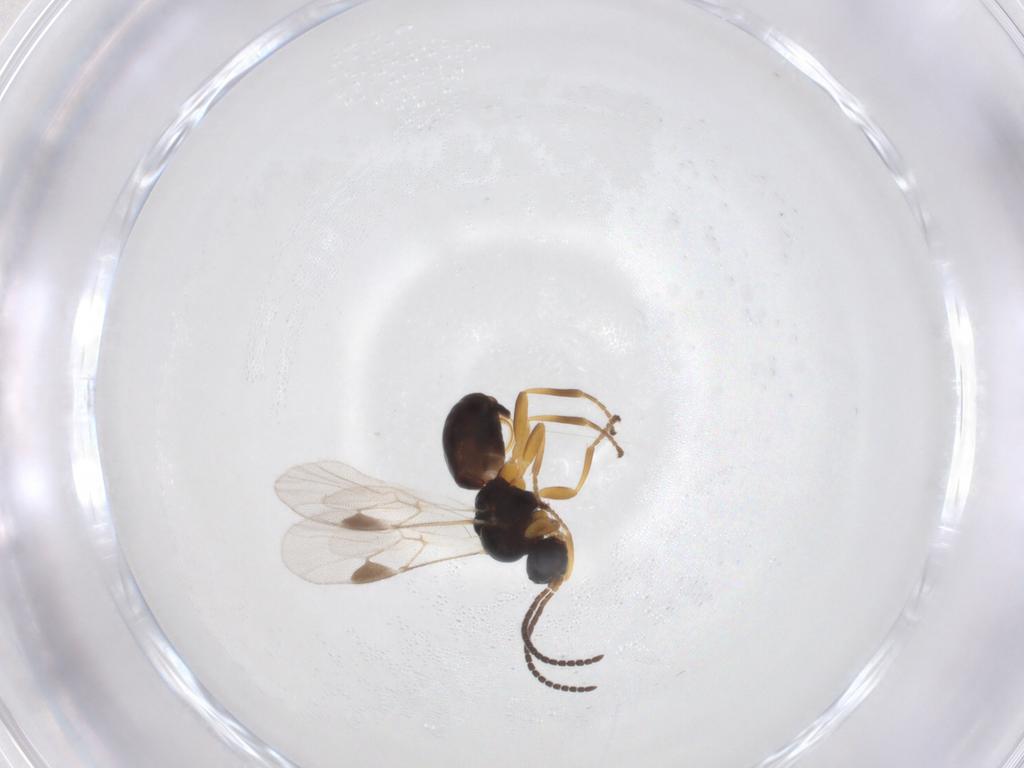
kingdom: Animalia
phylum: Arthropoda
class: Insecta
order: Hymenoptera
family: Braconidae
